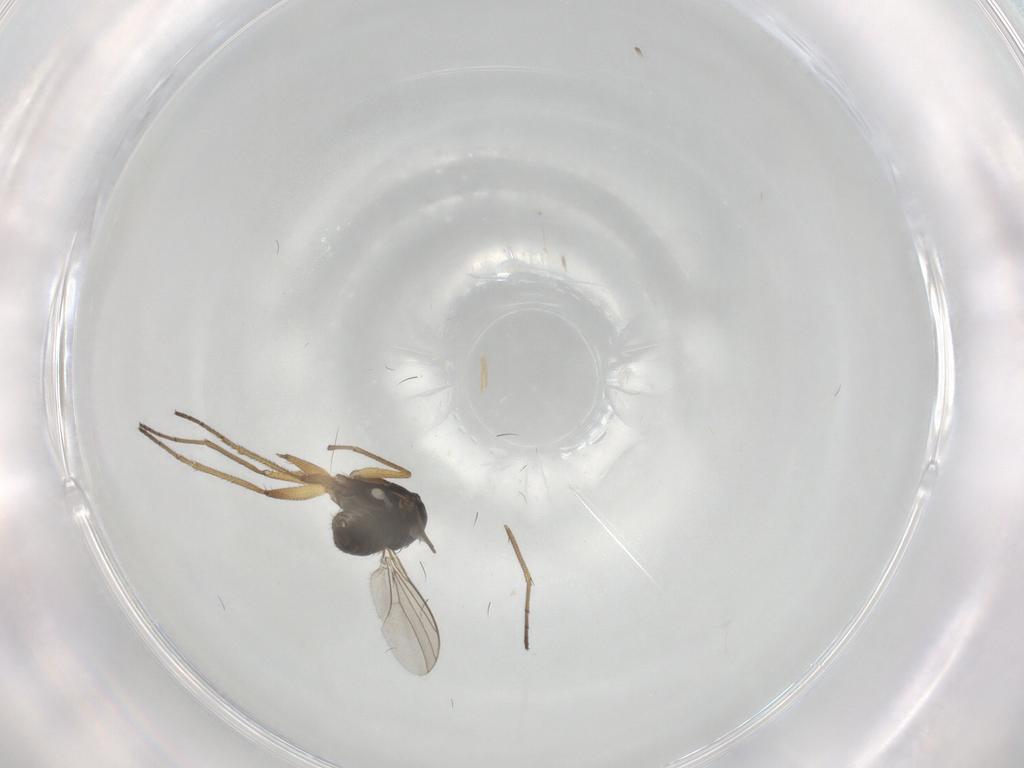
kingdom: Animalia
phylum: Arthropoda
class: Insecta
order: Diptera
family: Dolichopodidae
